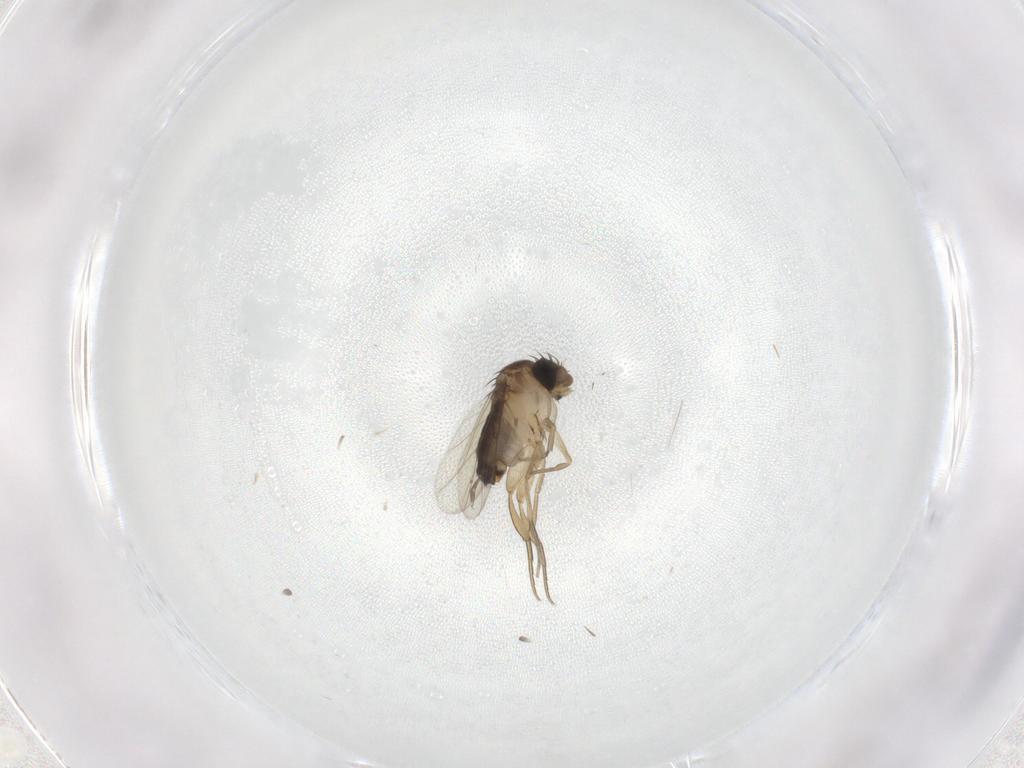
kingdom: Animalia
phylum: Arthropoda
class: Insecta
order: Diptera
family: Phoridae
